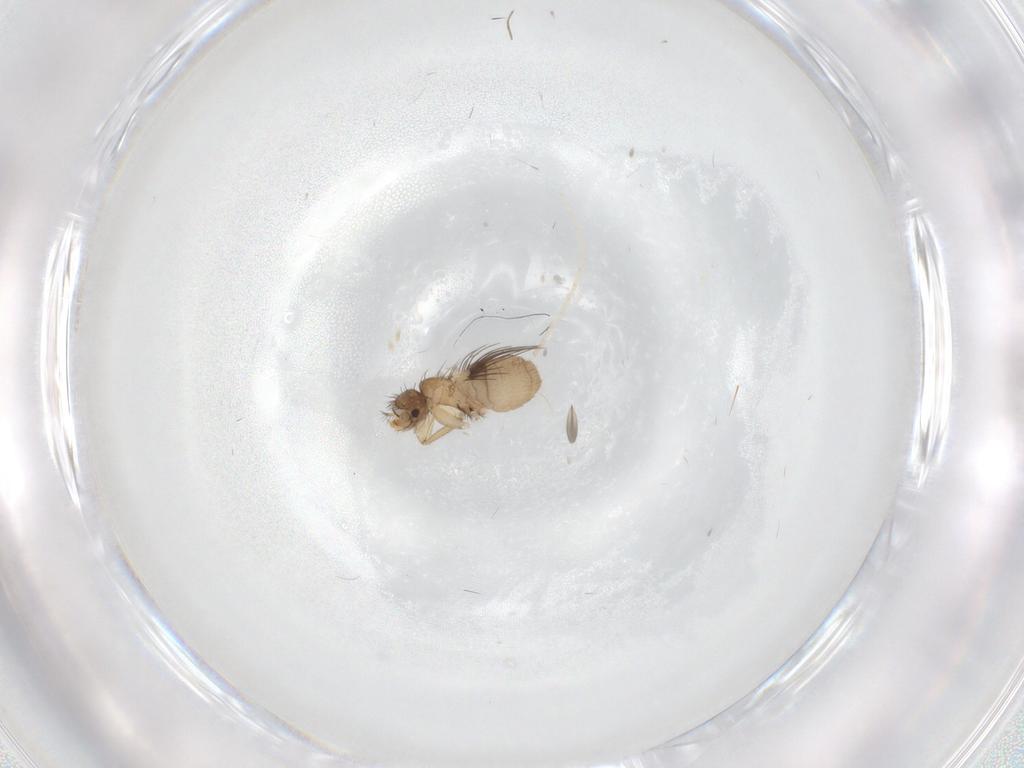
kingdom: Animalia
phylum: Arthropoda
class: Insecta
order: Diptera
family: Phoridae
